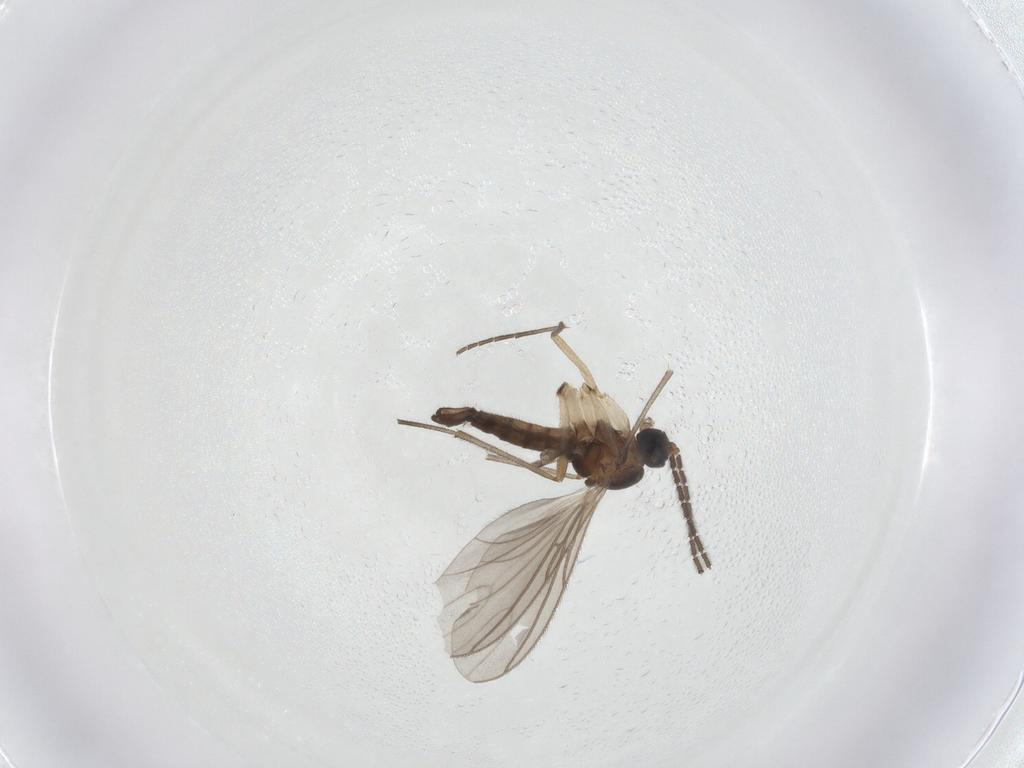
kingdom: Animalia
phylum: Arthropoda
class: Insecta
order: Diptera
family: Sciaridae
